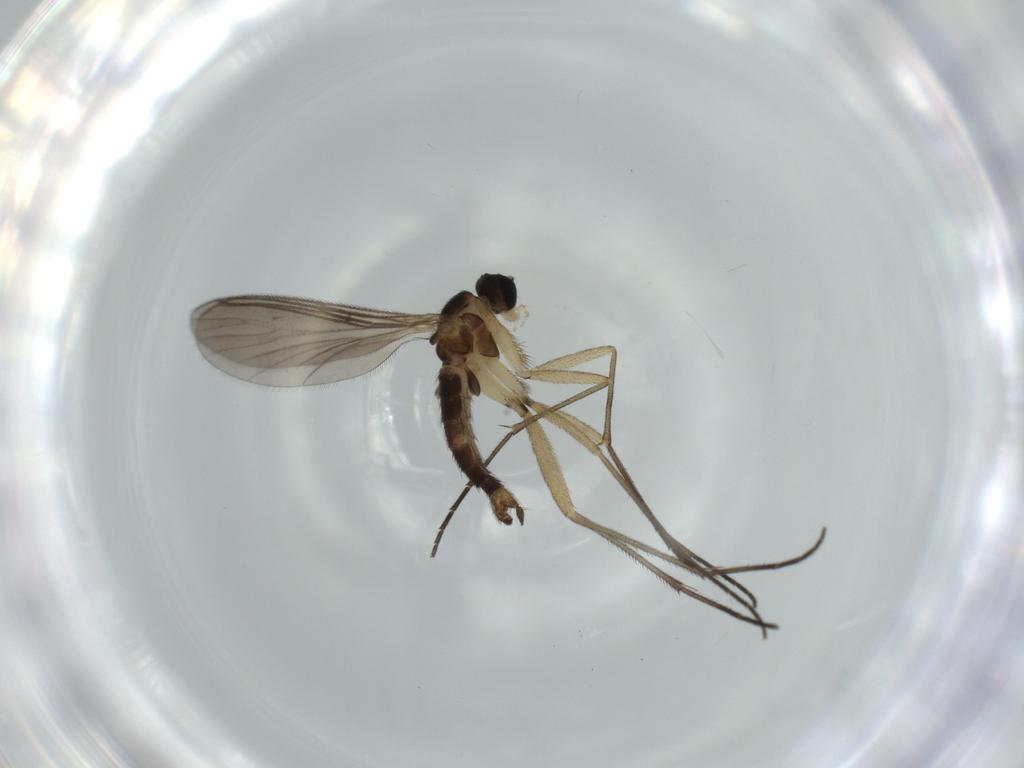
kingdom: Animalia
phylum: Arthropoda
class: Insecta
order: Diptera
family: Sciaridae
